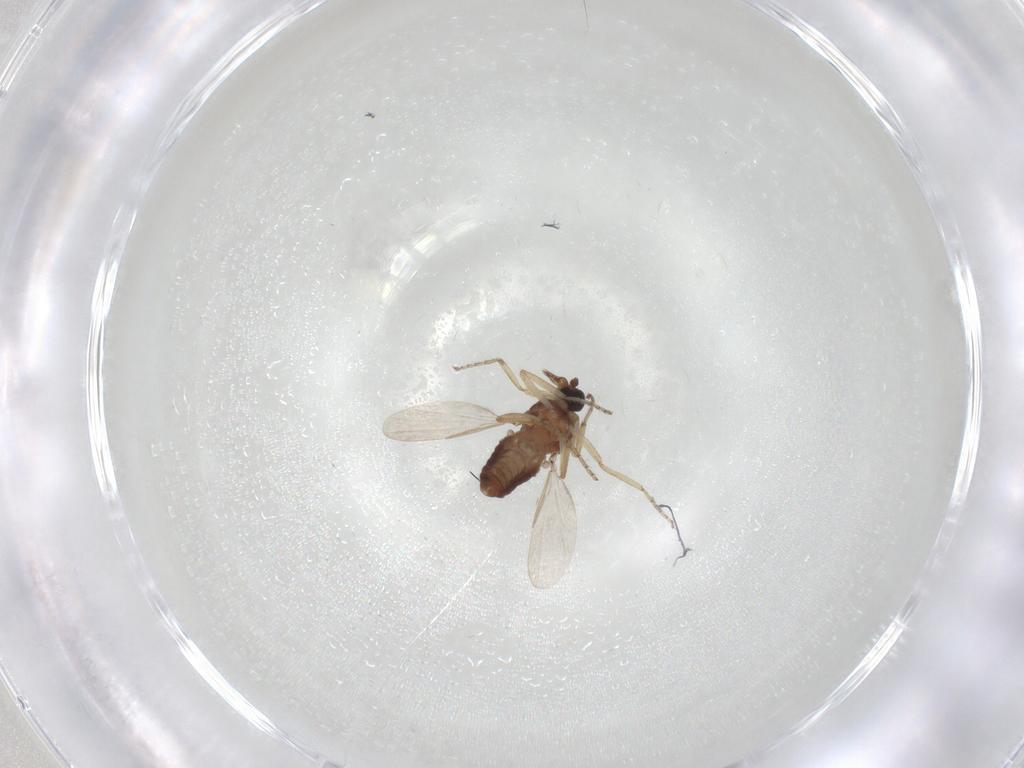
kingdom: Animalia
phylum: Arthropoda
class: Insecta
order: Diptera
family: Ceratopogonidae
